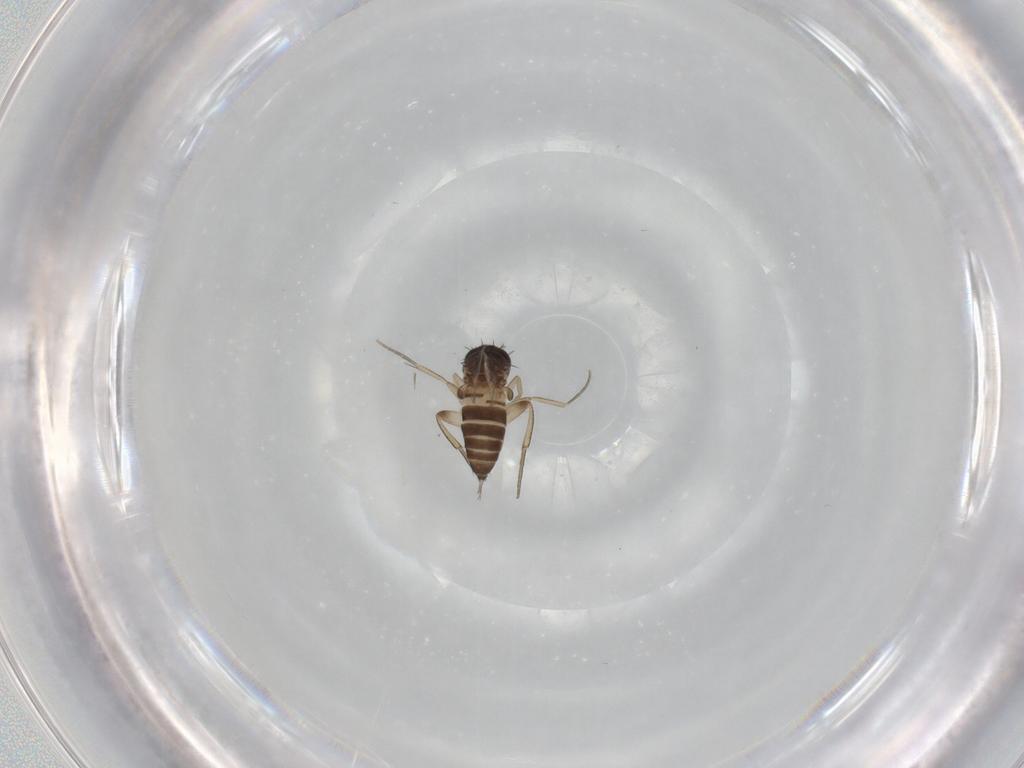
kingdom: Animalia
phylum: Arthropoda
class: Insecta
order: Diptera
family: Phoridae
